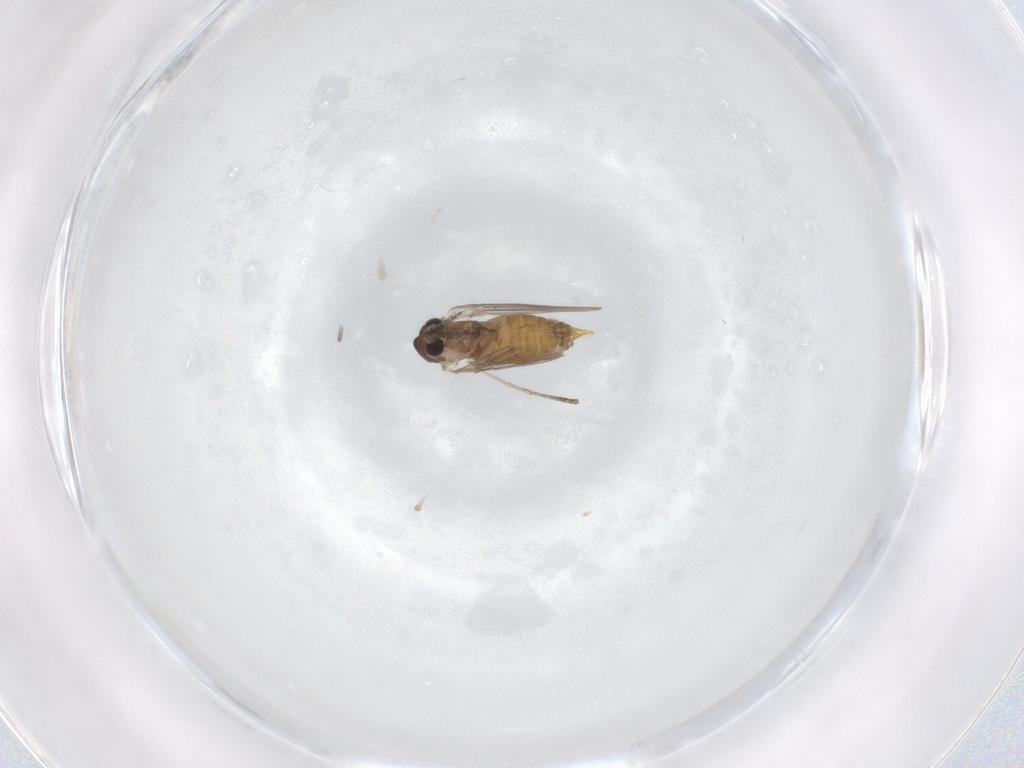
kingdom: Animalia
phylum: Arthropoda
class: Insecta
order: Diptera
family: Psychodidae
